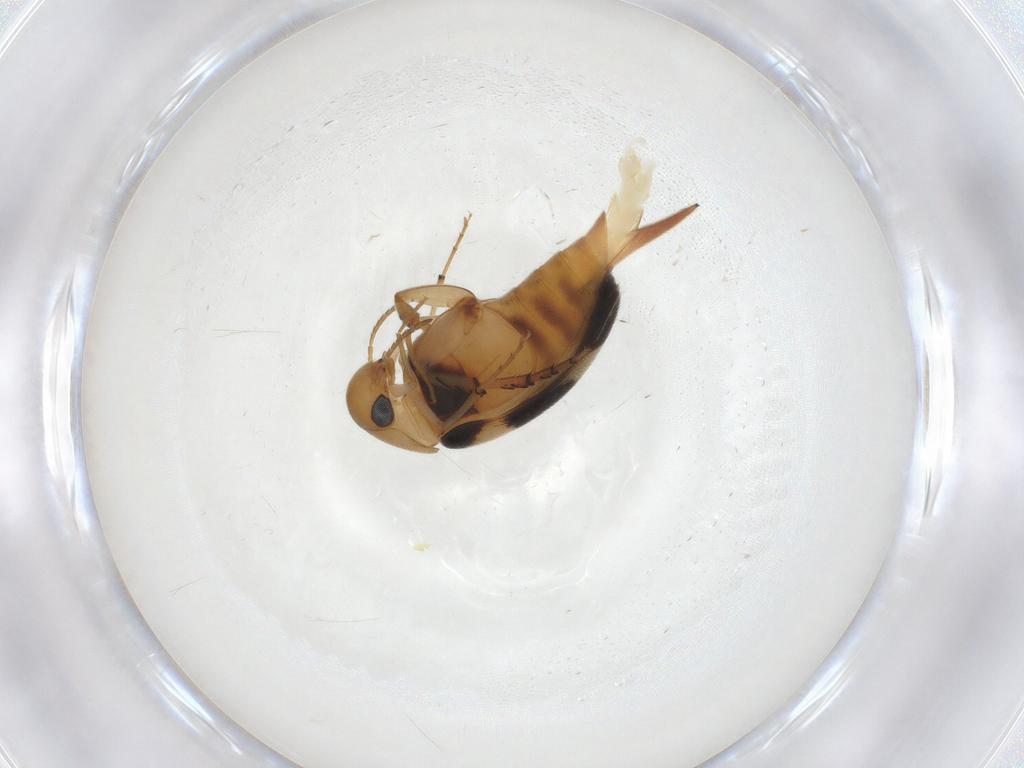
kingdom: Animalia
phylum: Arthropoda
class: Insecta
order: Coleoptera
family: Mordellidae
